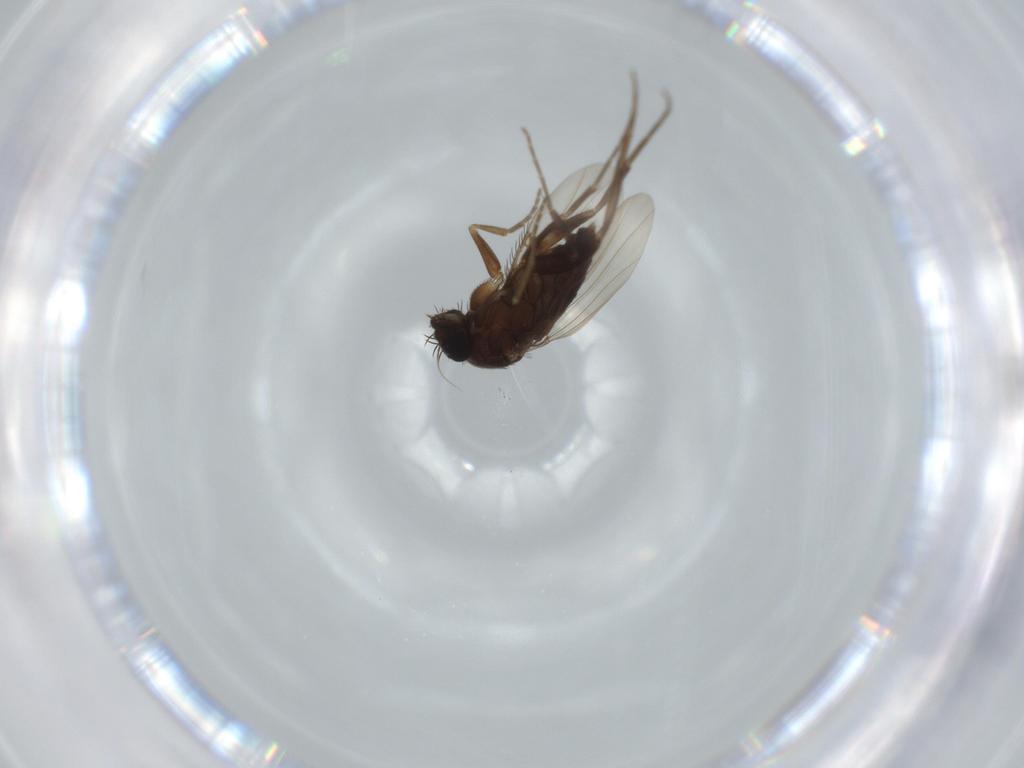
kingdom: Animalia
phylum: Arthropoda
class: Insecta
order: Diptera
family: Phoridae
